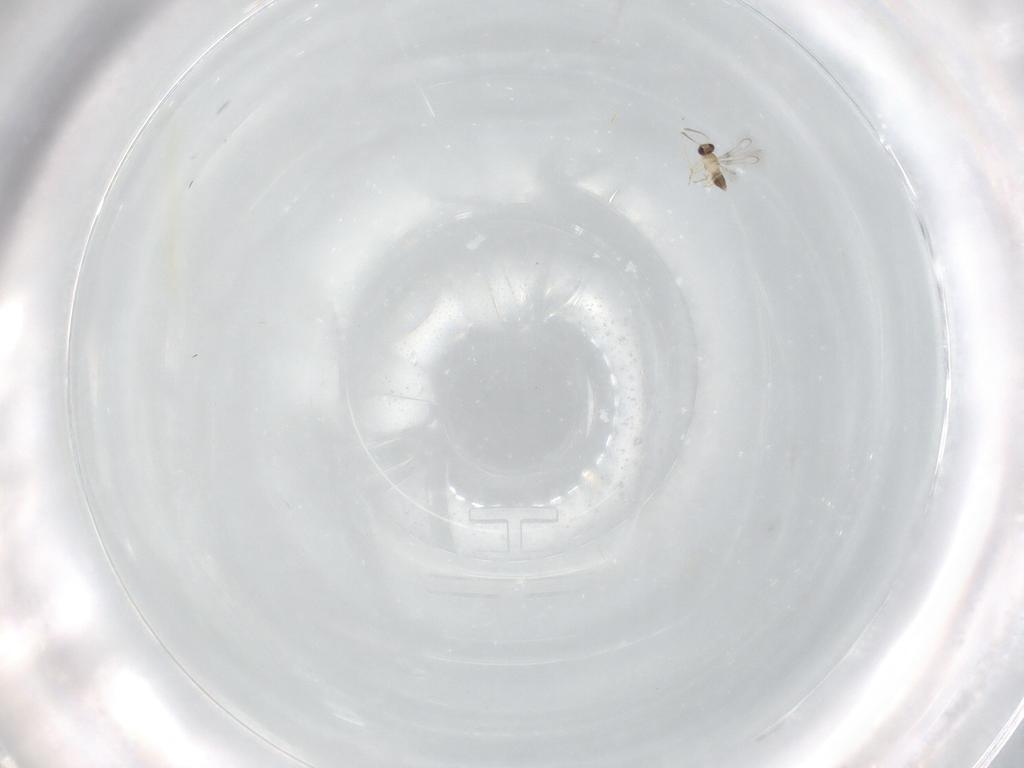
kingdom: Animalia
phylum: Arthropoda
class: Insecta
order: Hymenoptera
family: Mymaridae
